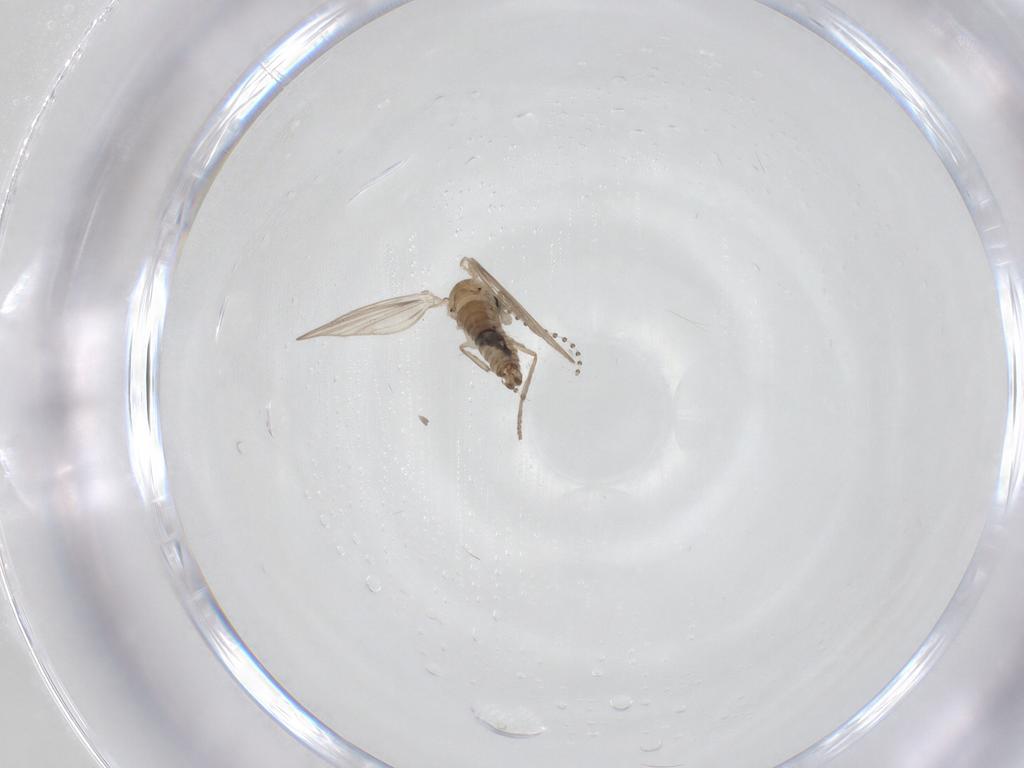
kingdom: Animalia
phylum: Arthropoda
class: Insecta
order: Diptera
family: Psychodidae
